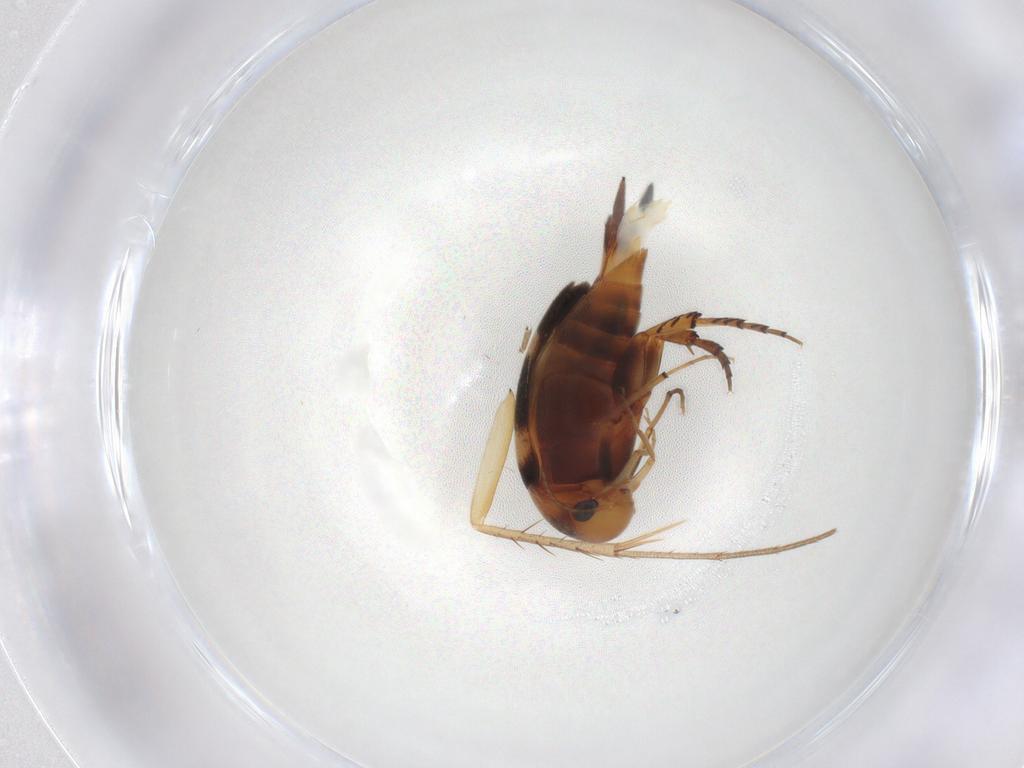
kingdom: Animalia
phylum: Arthropoda
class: Insecta
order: Coleoptera
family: Mordellidae
